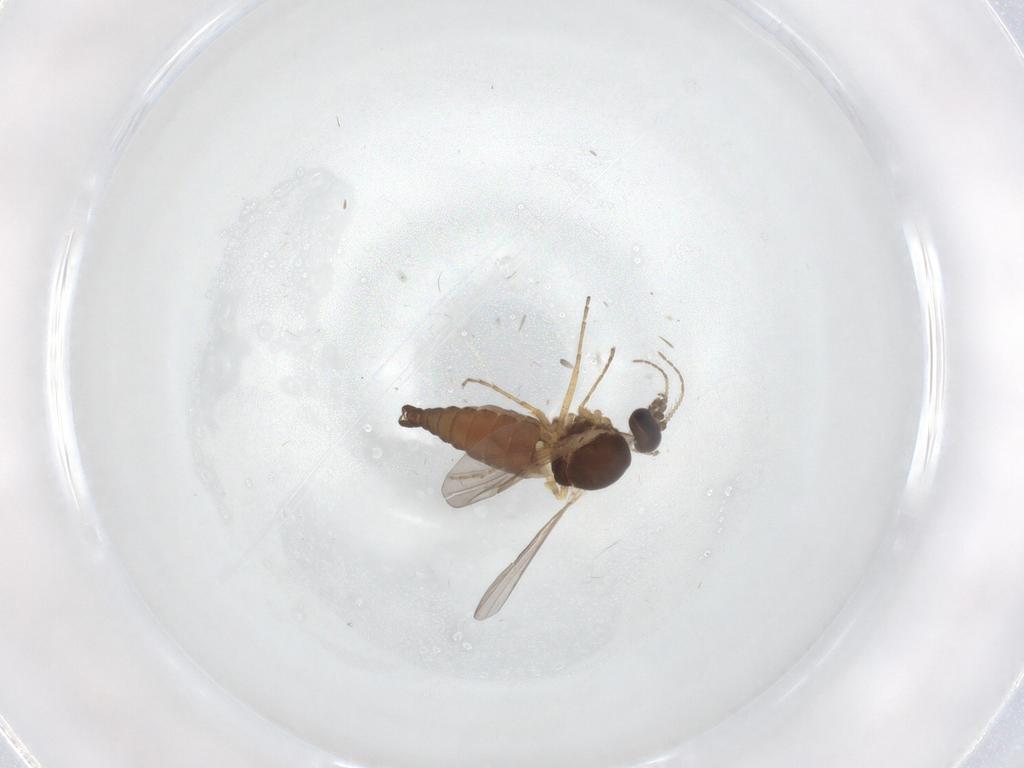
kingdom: Animalia
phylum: Arthropoda
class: Insecta
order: Diptera
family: Ceratopogonidae
